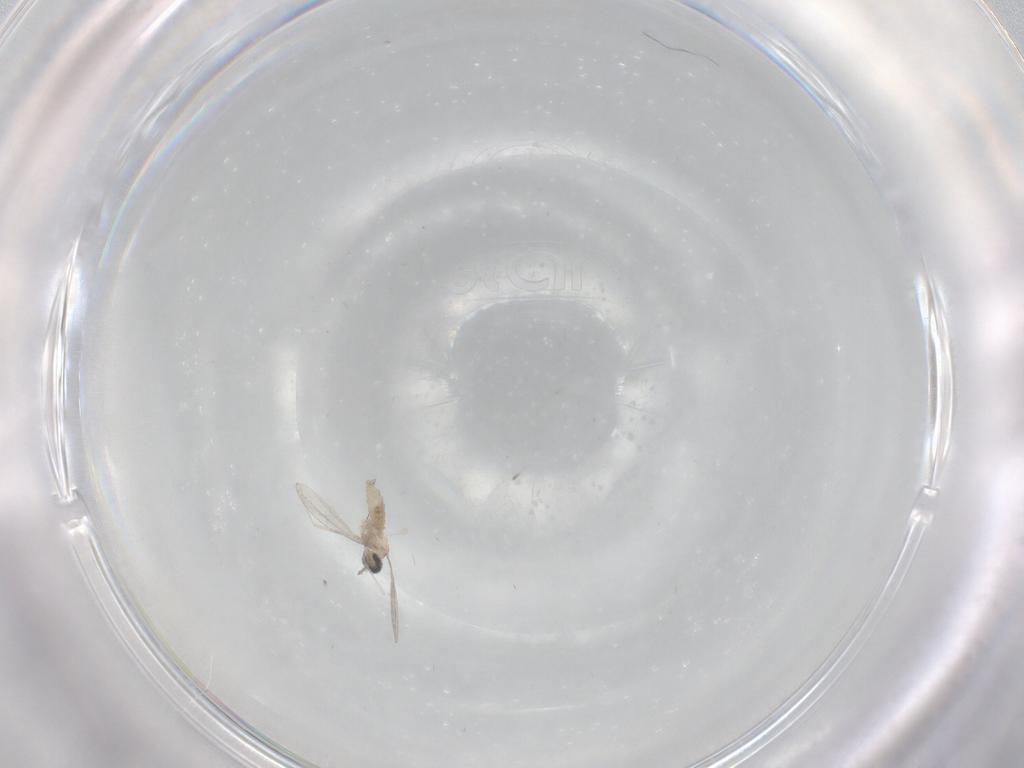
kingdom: Animalia
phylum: Arthropoda
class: Insecta
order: Diptera
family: Cecidomyiidae
